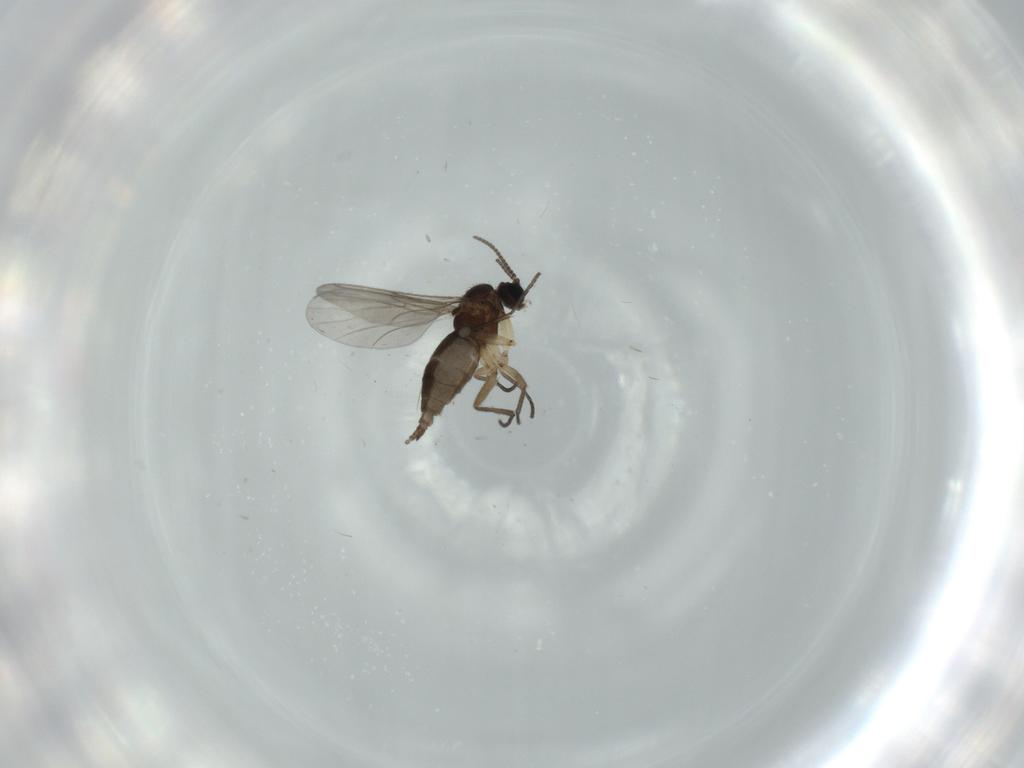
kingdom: Animalia
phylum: Arthropoda
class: Insecta
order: Diptera
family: Sciaridae
